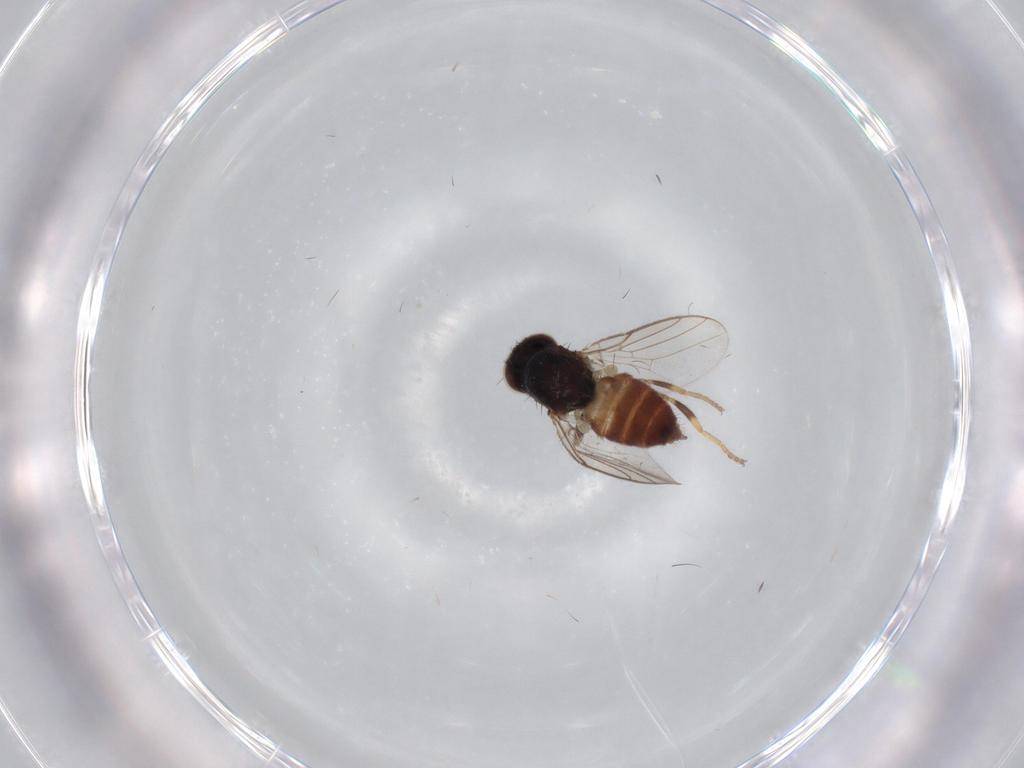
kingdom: Animalia
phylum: Arthropoda
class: Insecta
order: Diptera
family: Chloropidae
